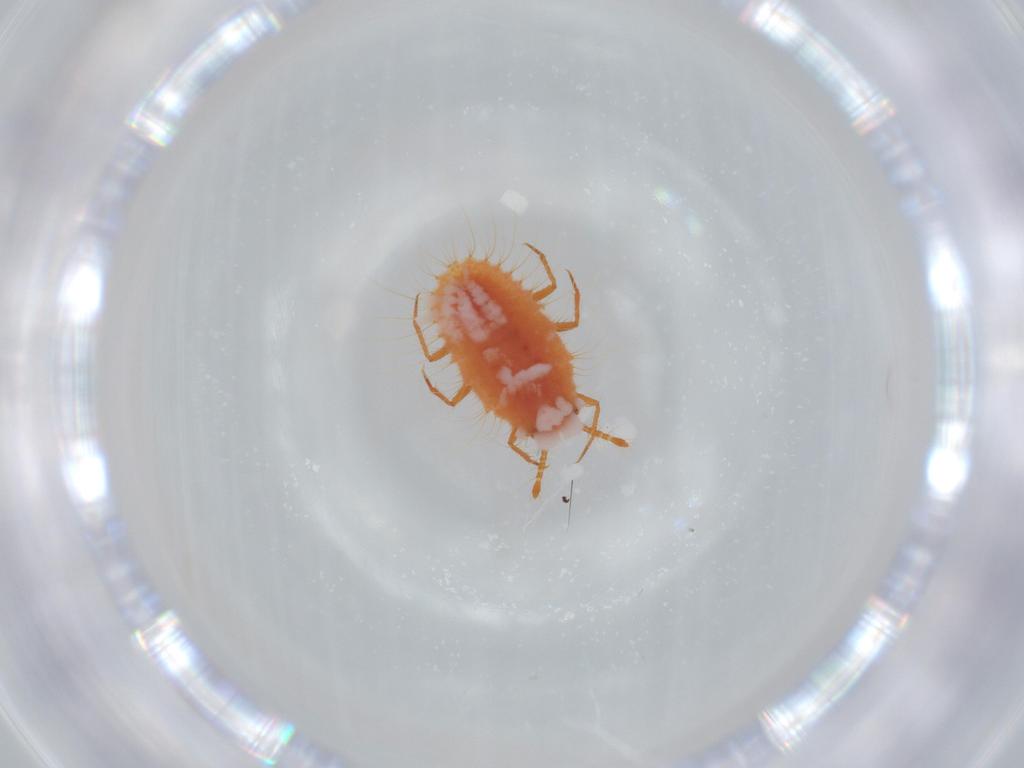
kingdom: Animalia
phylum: Arthropoda
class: Insecta
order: Hemiptera
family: Coccoidea_incertae_sedis
